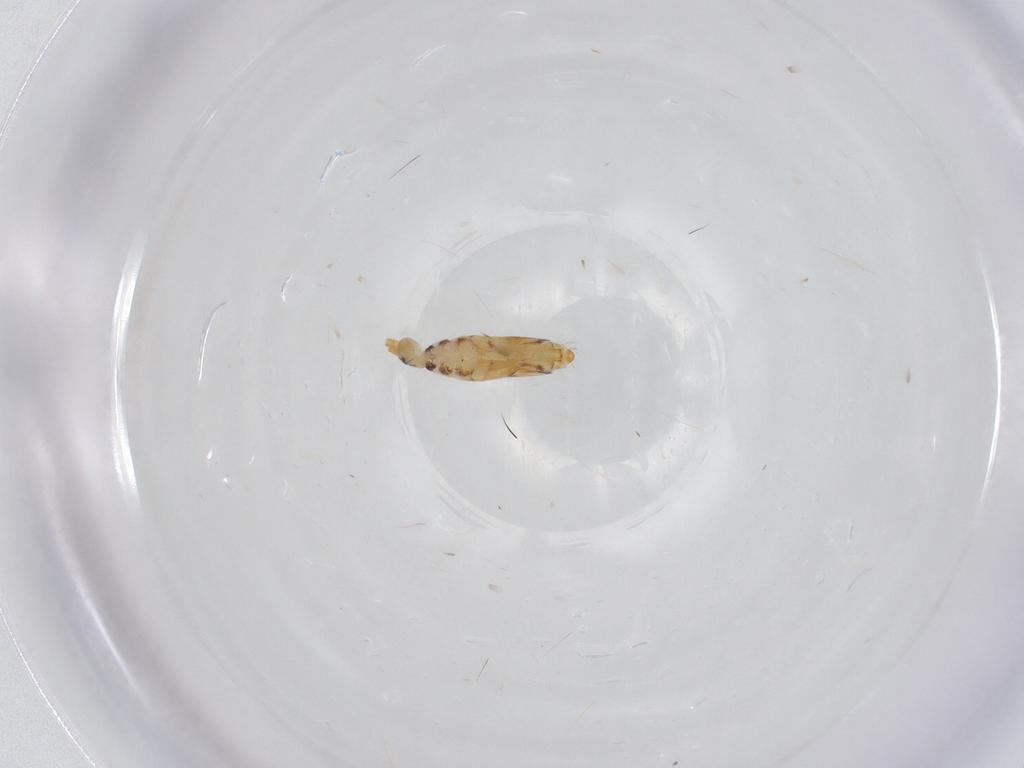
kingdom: Animalia
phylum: Arthropoda
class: Collembola
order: Entomobryomorpha
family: Entomobryidae
